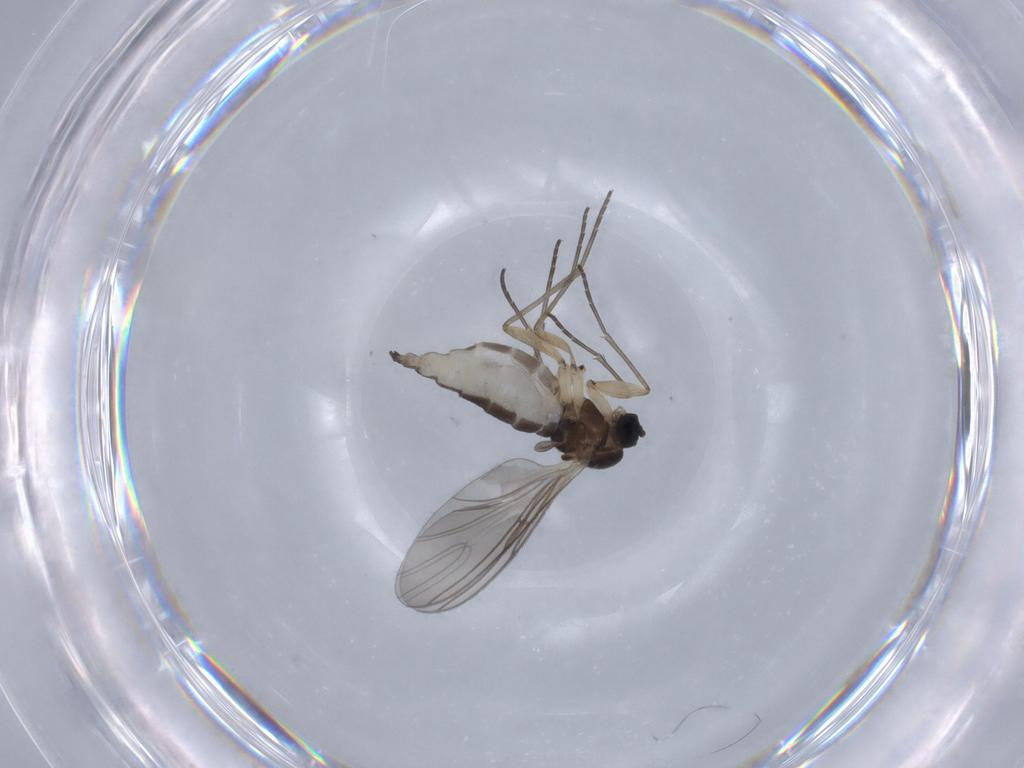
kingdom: Animalia
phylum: Arthropoda
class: Insecta
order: Diptera
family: Sciaridae
